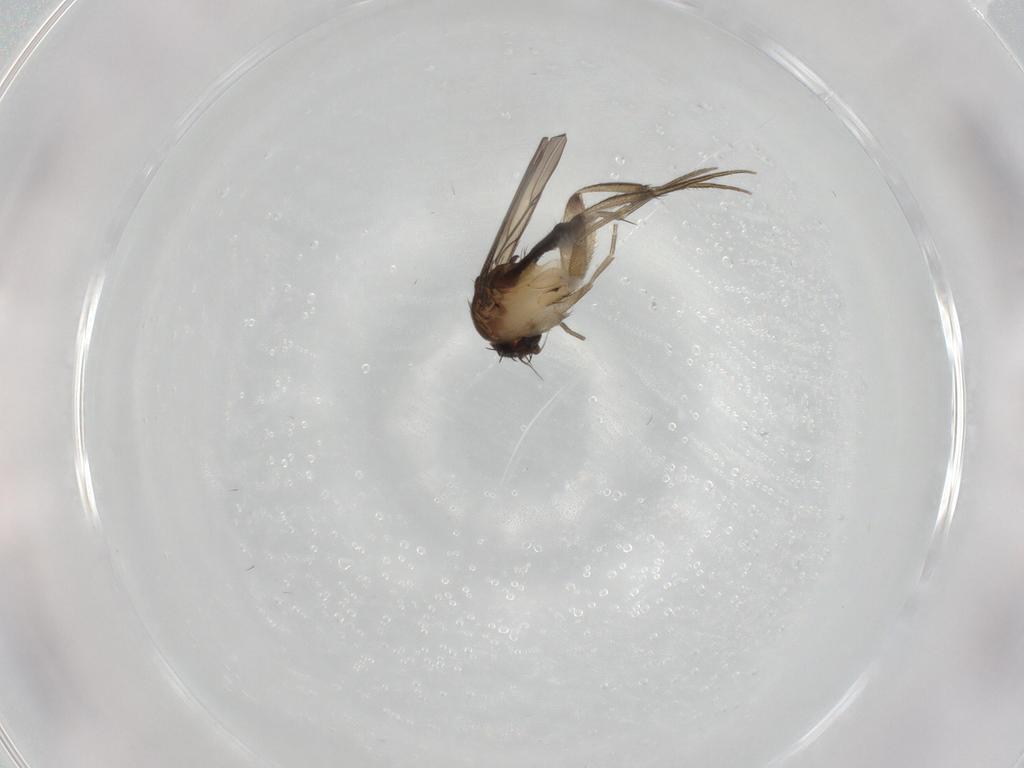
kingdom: Animalia
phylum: Arthropoda
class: Insecta
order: Diptera
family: Phoridae
